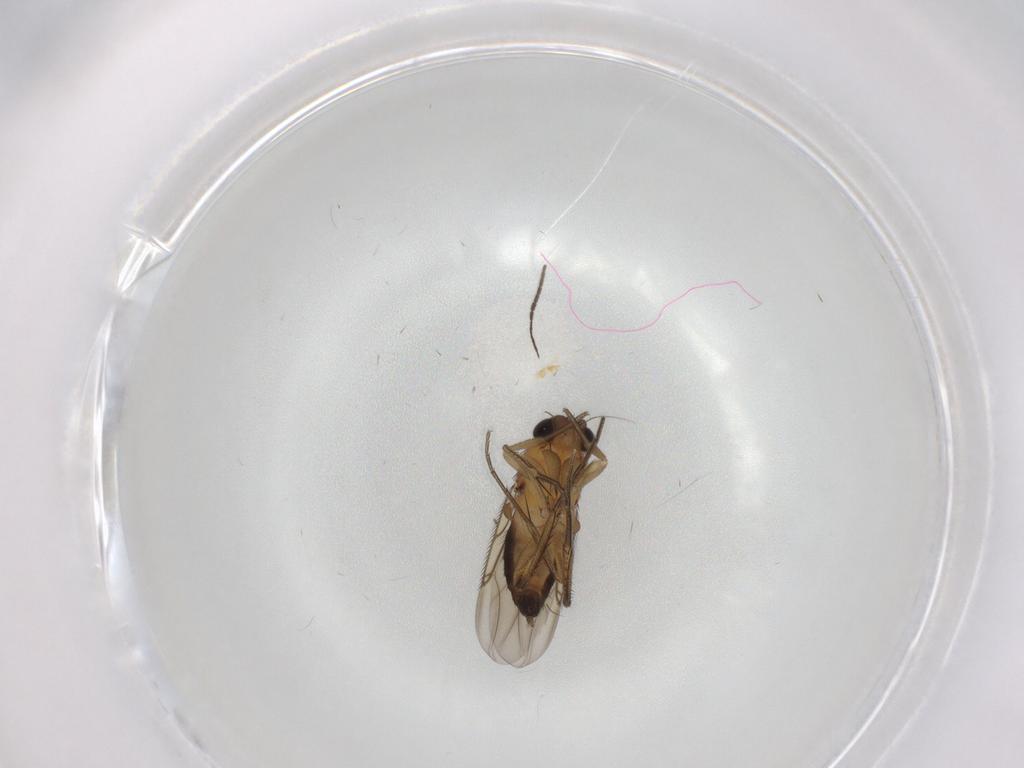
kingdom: Animalia
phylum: Arthropoda
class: Insecta
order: Diptera
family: Phoridae
